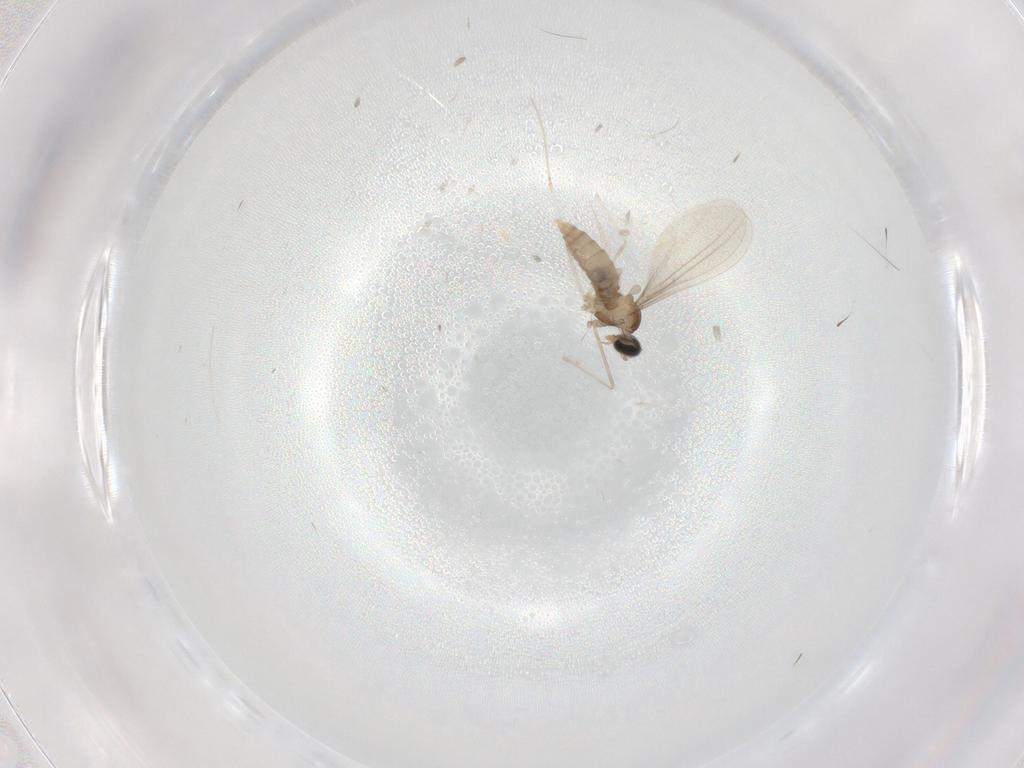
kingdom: Animalia
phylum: Arthropoda
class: Insecta
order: Diptera
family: Cecidomyiidae
